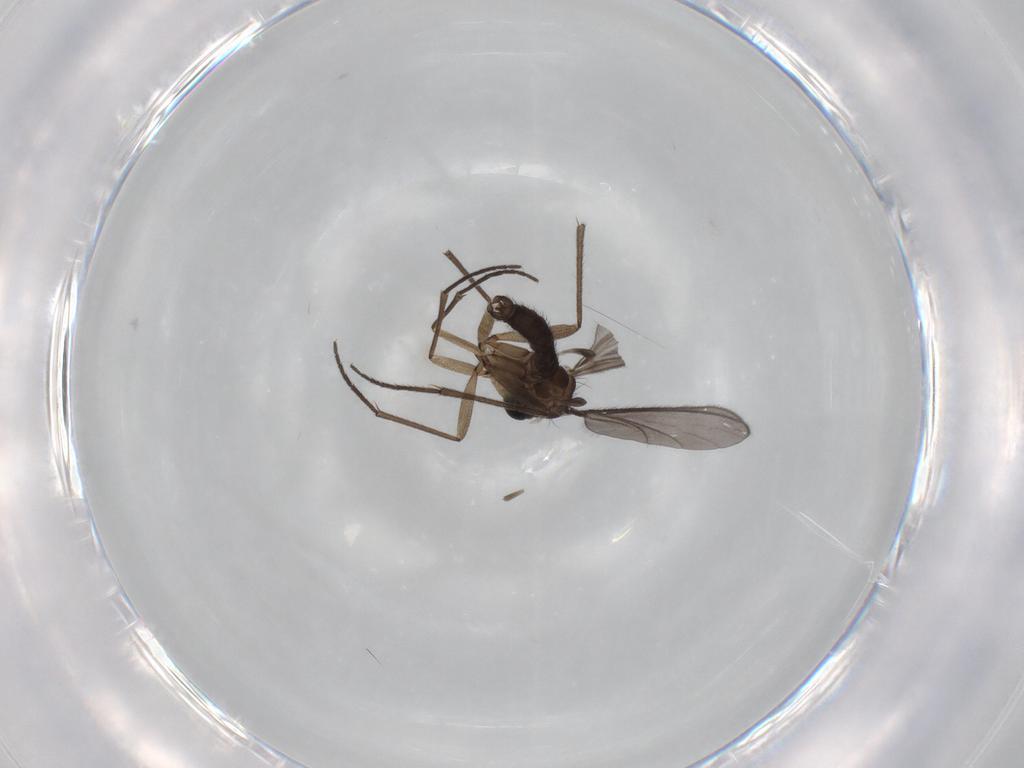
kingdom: Animalia
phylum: Arthropoda
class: Insecta
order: Diptera
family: Sciaridae
